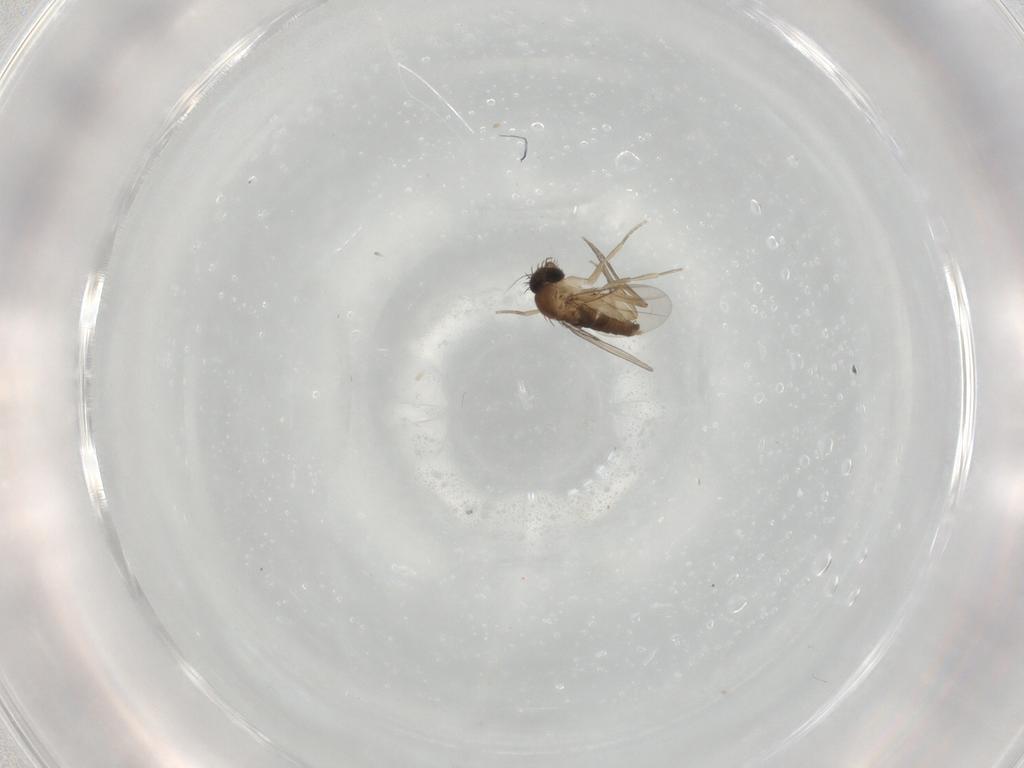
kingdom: Animalia
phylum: Arthropoda
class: Insecta
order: Diptera
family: Phoridae
